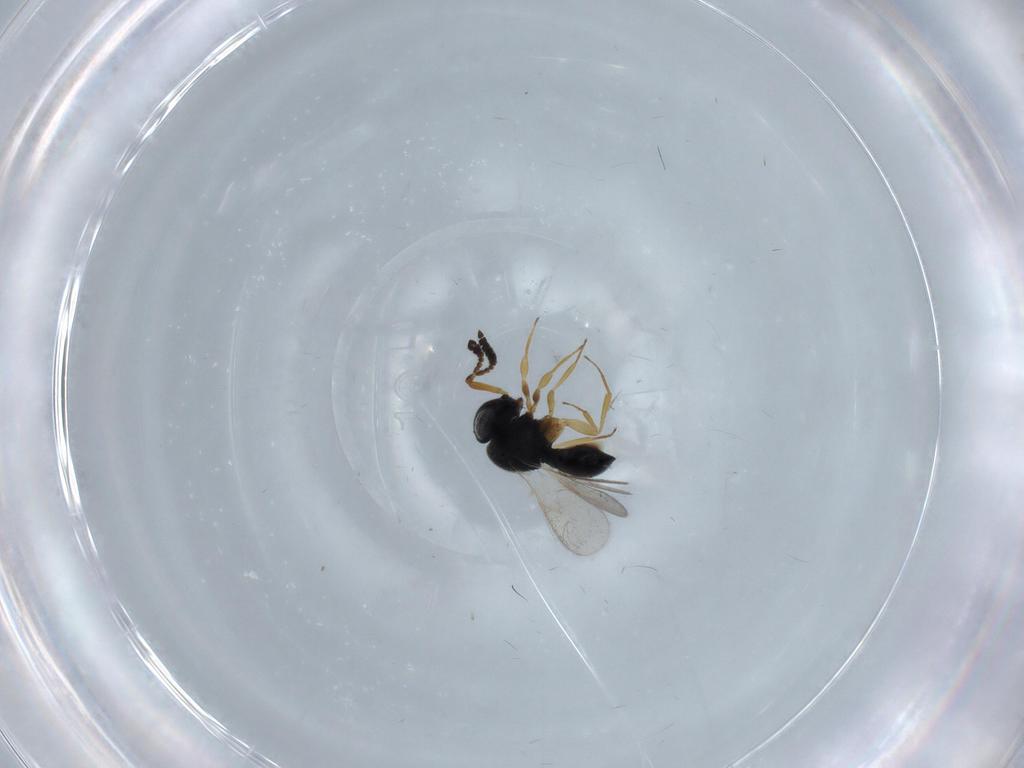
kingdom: Animalia
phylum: Arthropoda
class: Insecta
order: Hymenoptera
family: Scelionidae
